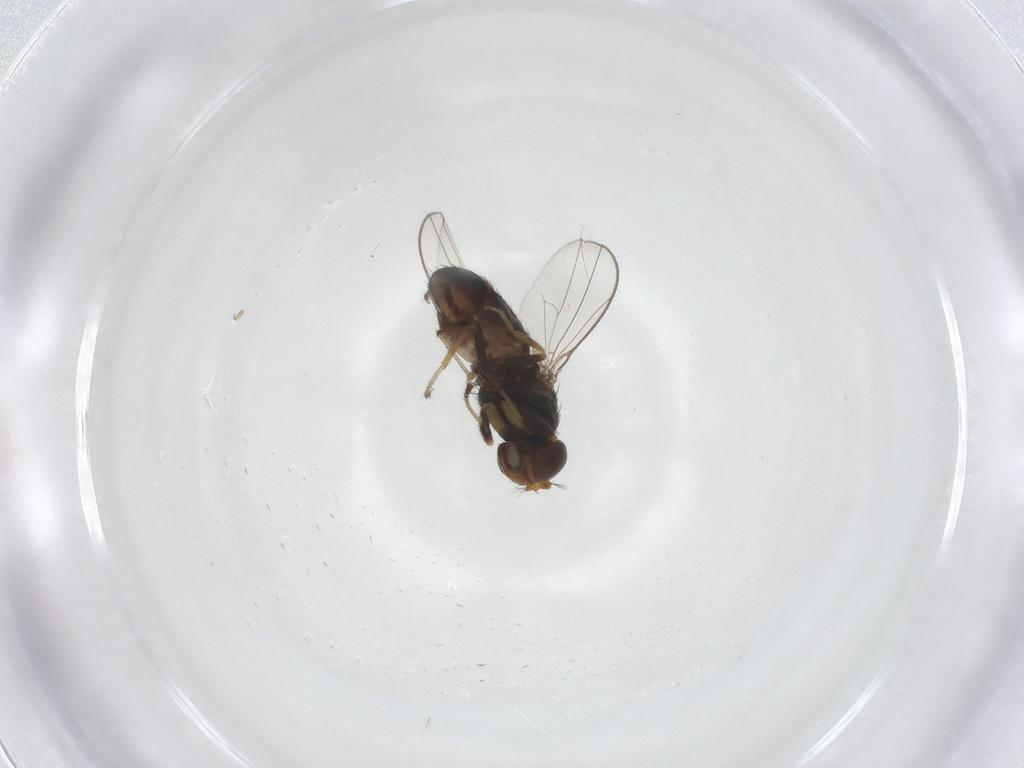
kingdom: Animalia
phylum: Arthropoda
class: Insecta
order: Diptera
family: Ephydridae
